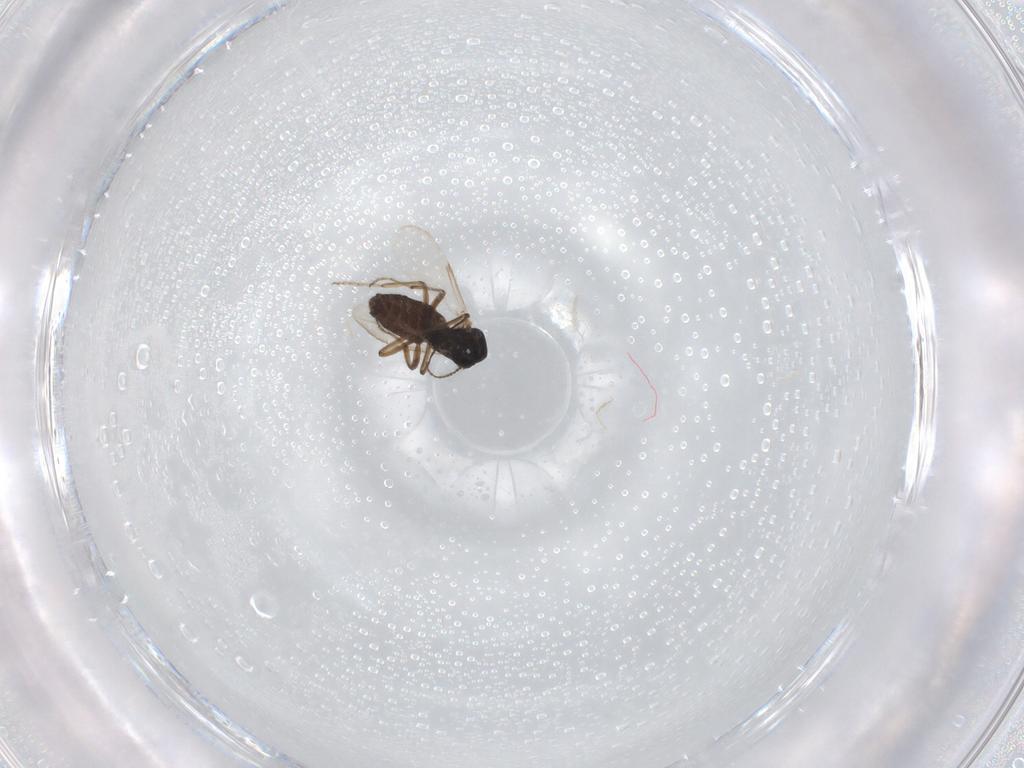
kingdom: Animalia
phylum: Arthropoda
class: Insecta
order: Diptera
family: Ceratopogonidae
